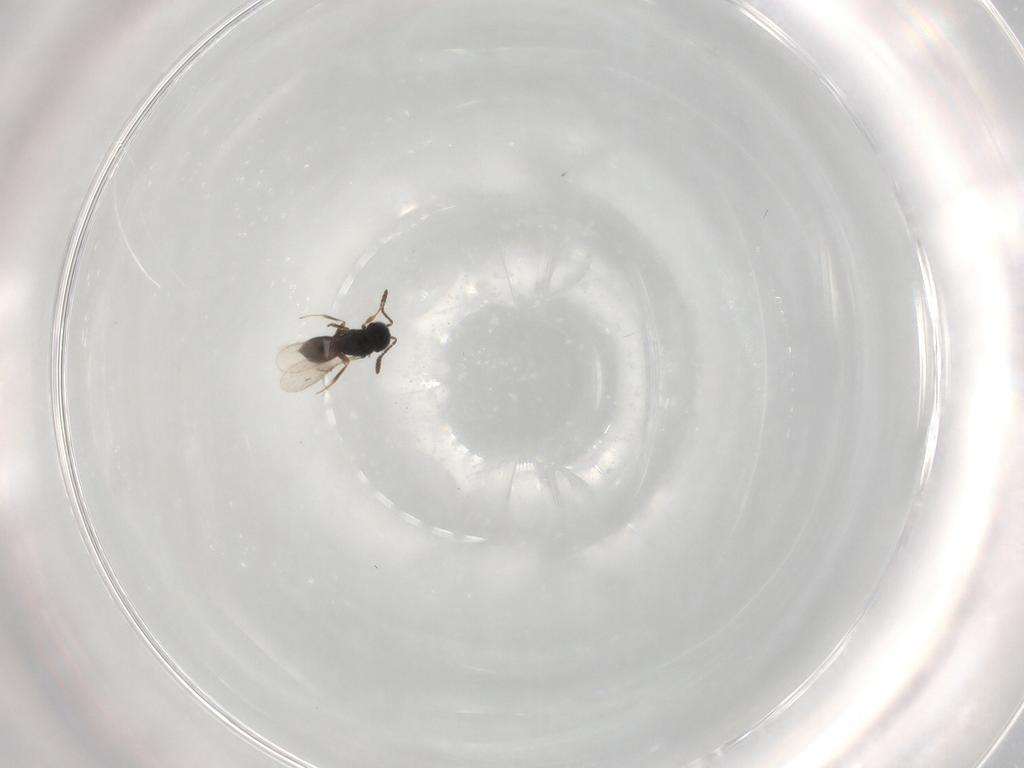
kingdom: Animalia
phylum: Arthropoda
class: Insecta
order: Hymenoptera
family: Scelionidae
